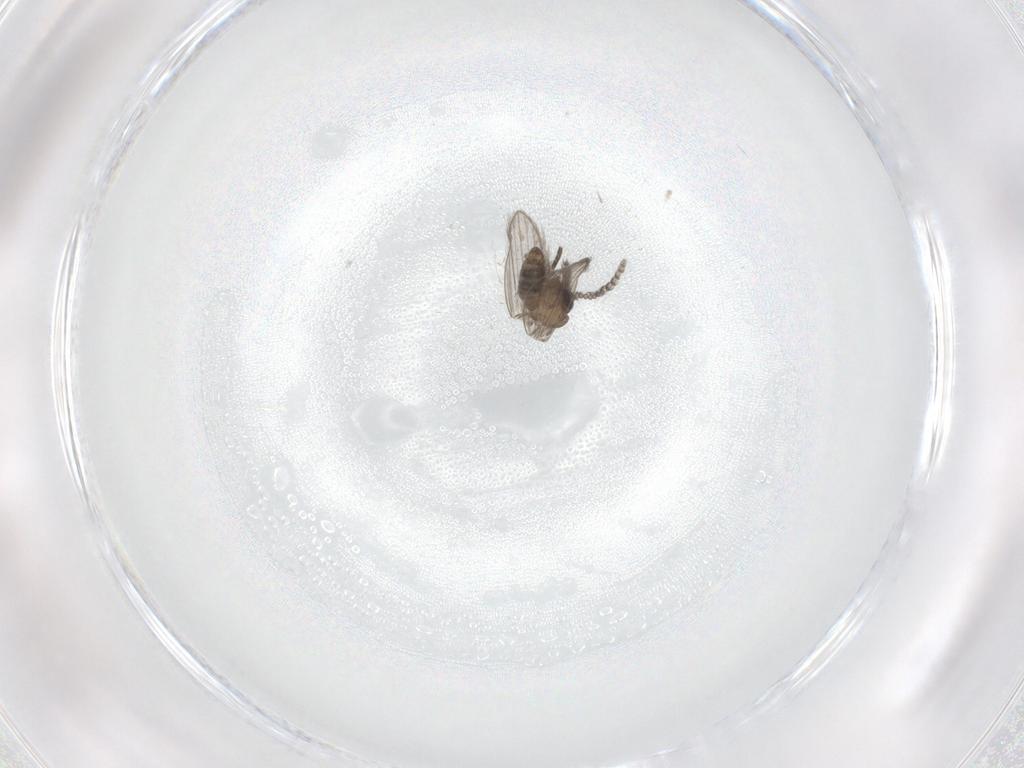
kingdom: Animalia
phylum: Arthropoda
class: Insecta
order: Diptera
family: Psychodidae
